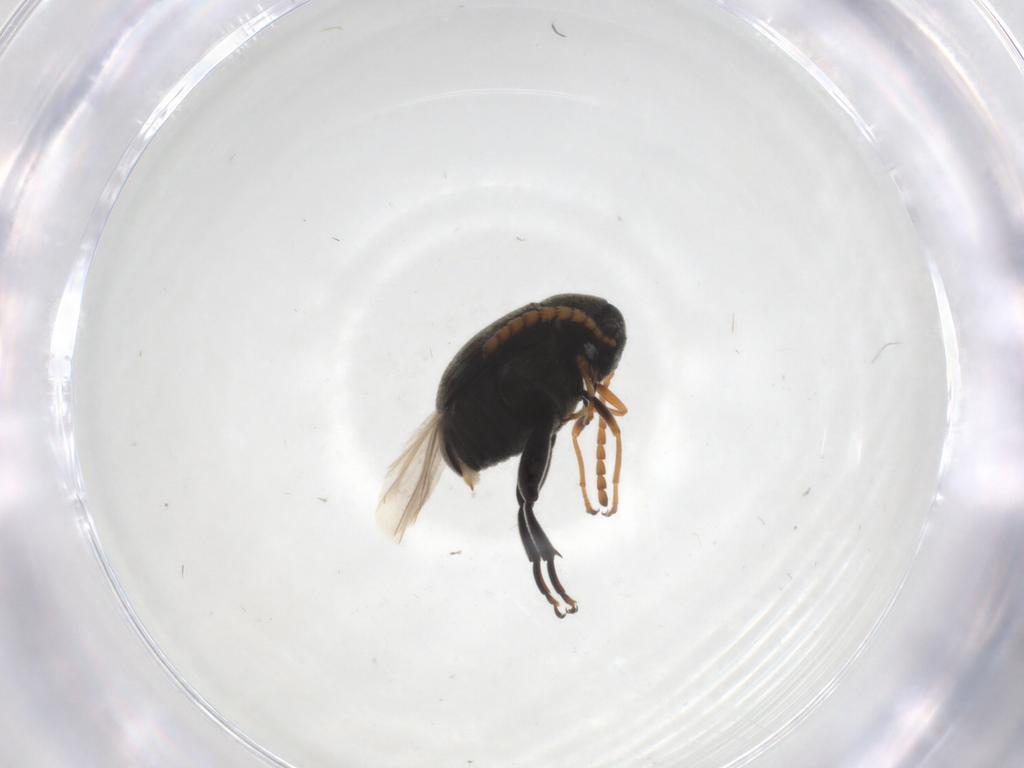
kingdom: Animalia
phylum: Arthropoda
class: Insecta
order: Coleoptera
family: Chrysomelidae
